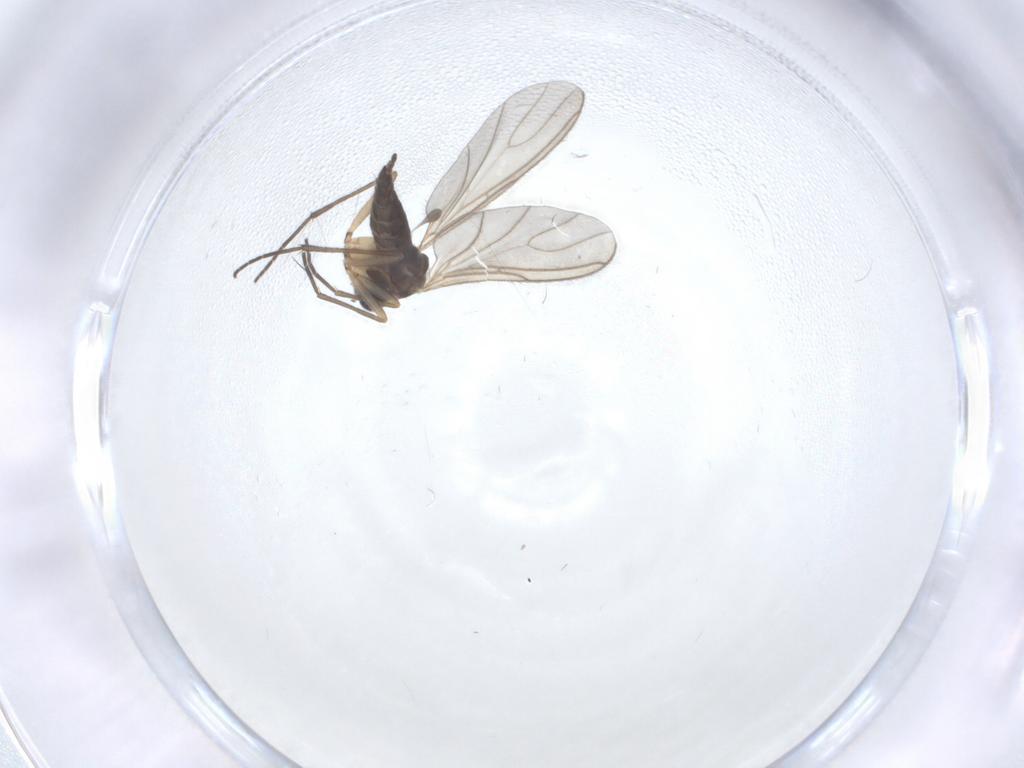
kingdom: Animalia
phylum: Arthropoda
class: Insecta
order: Diptera
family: Sciaridae
